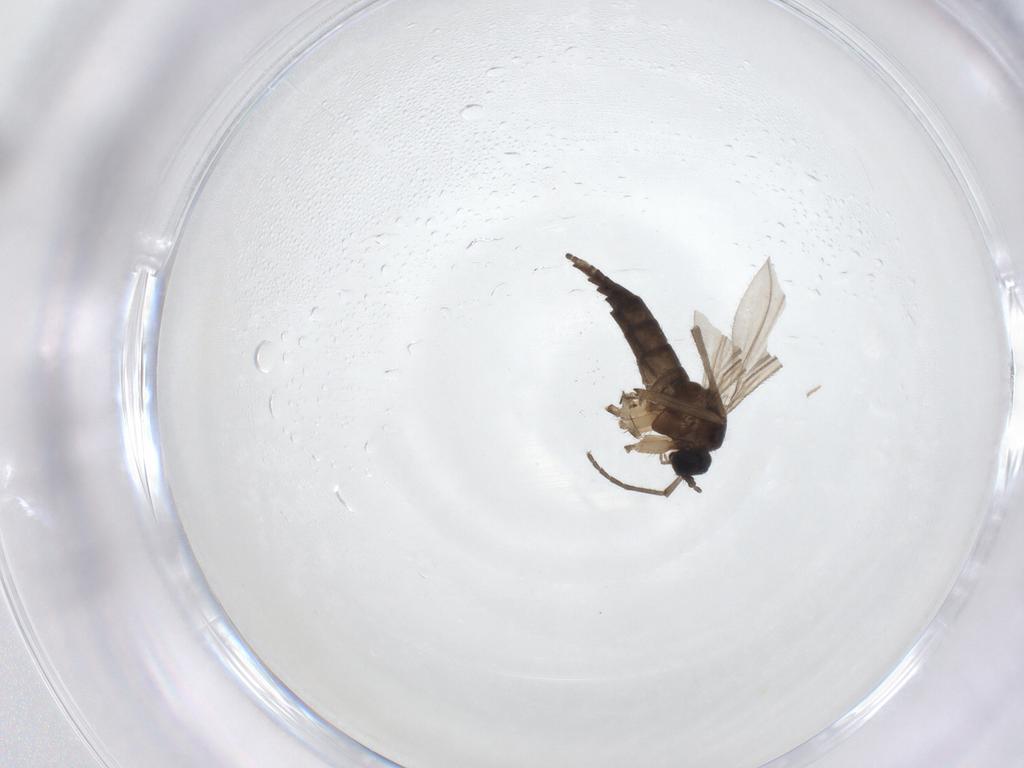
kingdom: Animalia
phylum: Arthropoda
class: Insecta
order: Diptera
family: Sciaridae
